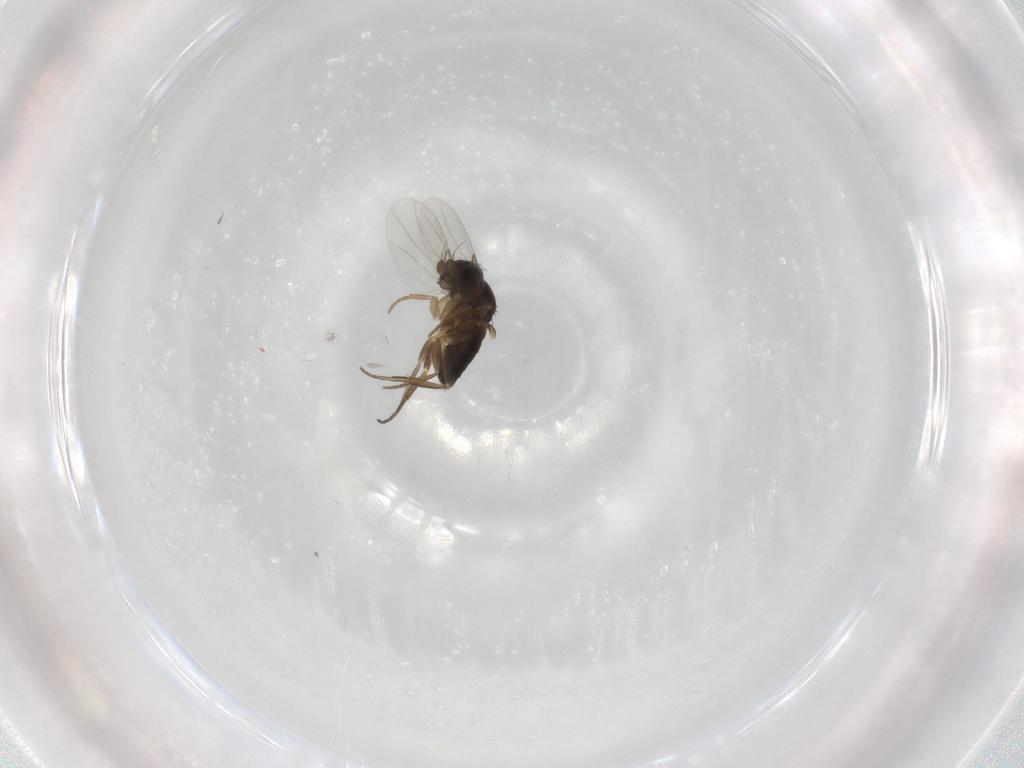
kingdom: Animalia
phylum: Arthropoda
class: Insecta
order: Diptera
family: Phoridae
